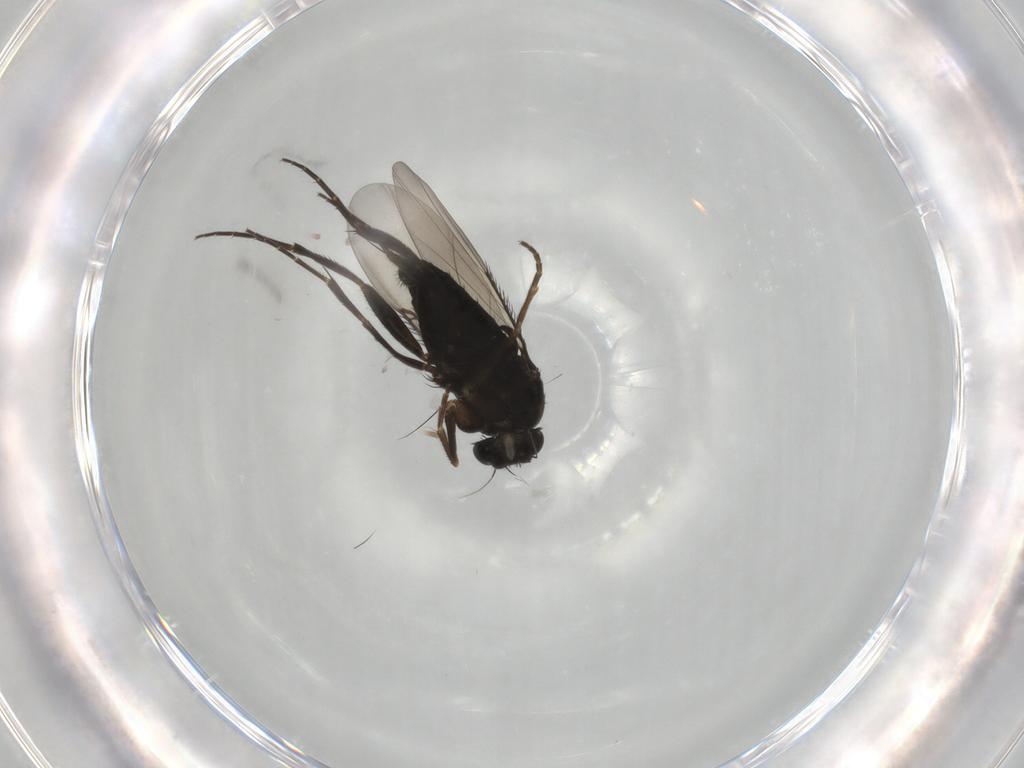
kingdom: Animalia
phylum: Arthropoda
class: Insecta
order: Diptera
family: Phoridae
